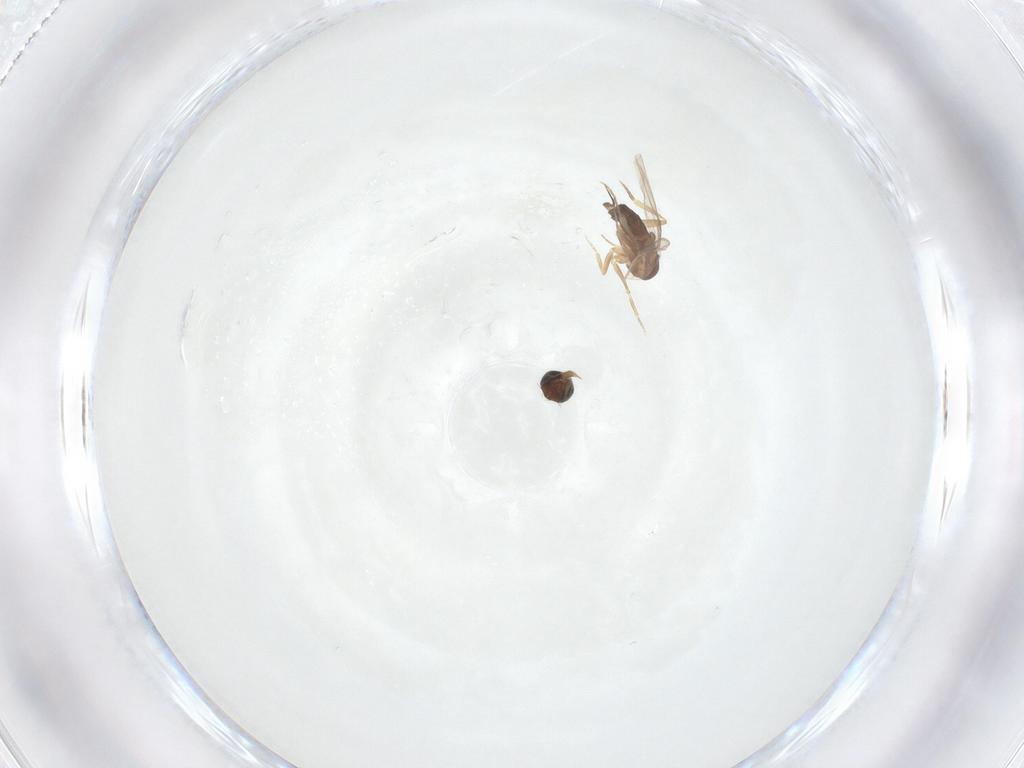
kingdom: Animalia
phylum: Arthropoda
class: Insecta
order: Diptera
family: Phoridae
